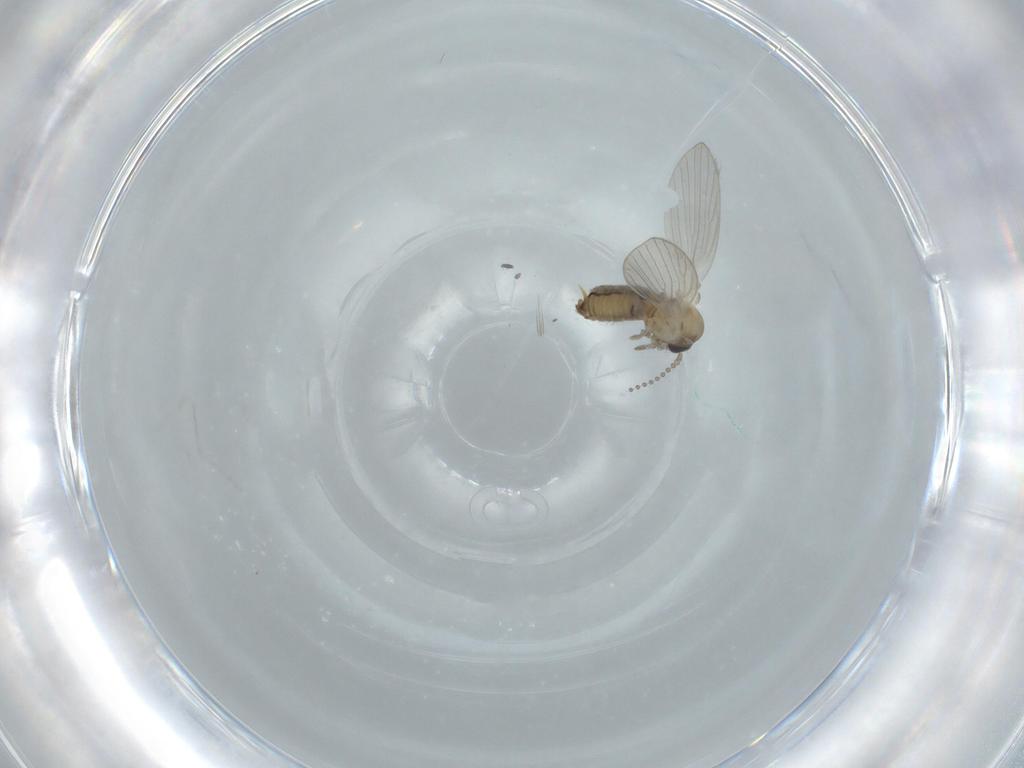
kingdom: Animalia
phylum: Arthropoda
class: Insecta
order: Diptera
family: Psychodidae
